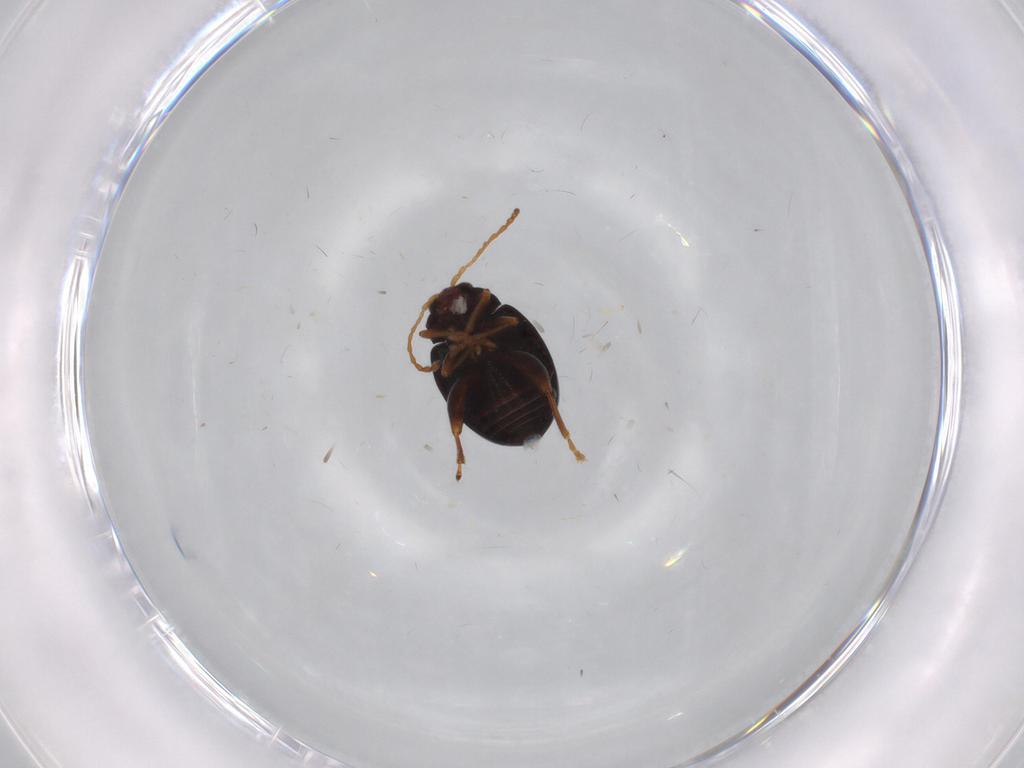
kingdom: Animalia
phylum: Arthropoda
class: Insecta
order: Coleoptera
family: Chrysomelidae
